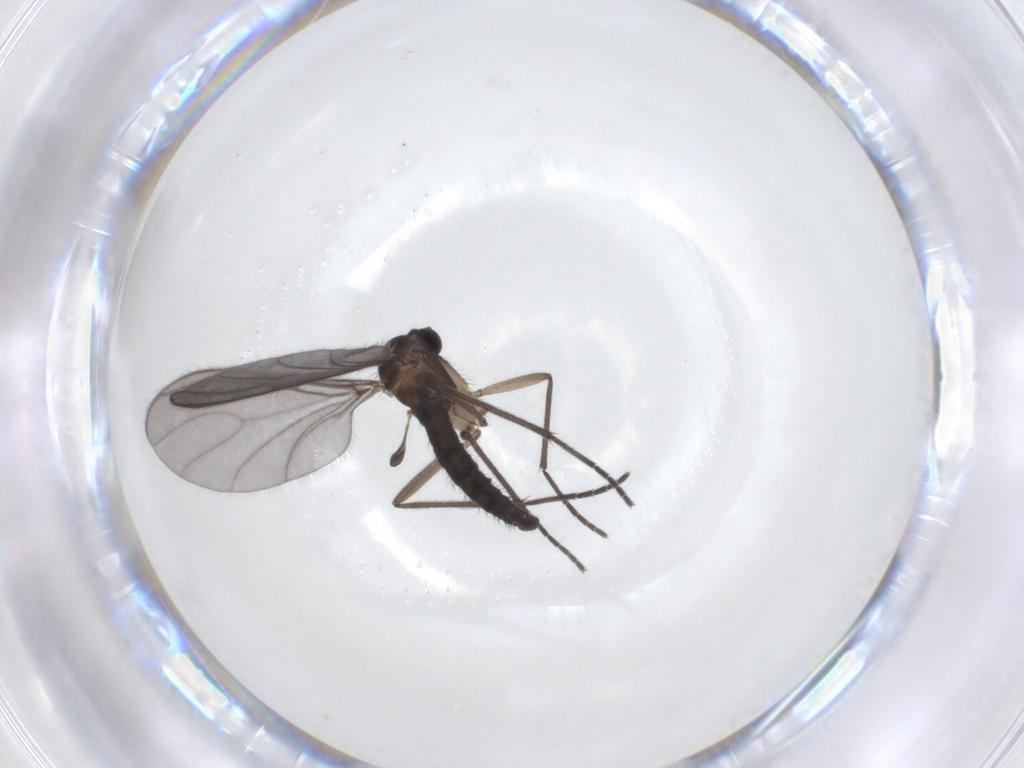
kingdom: Animalia
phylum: Arthropoda
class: Insecta
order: Diptera
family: Sciaridae
